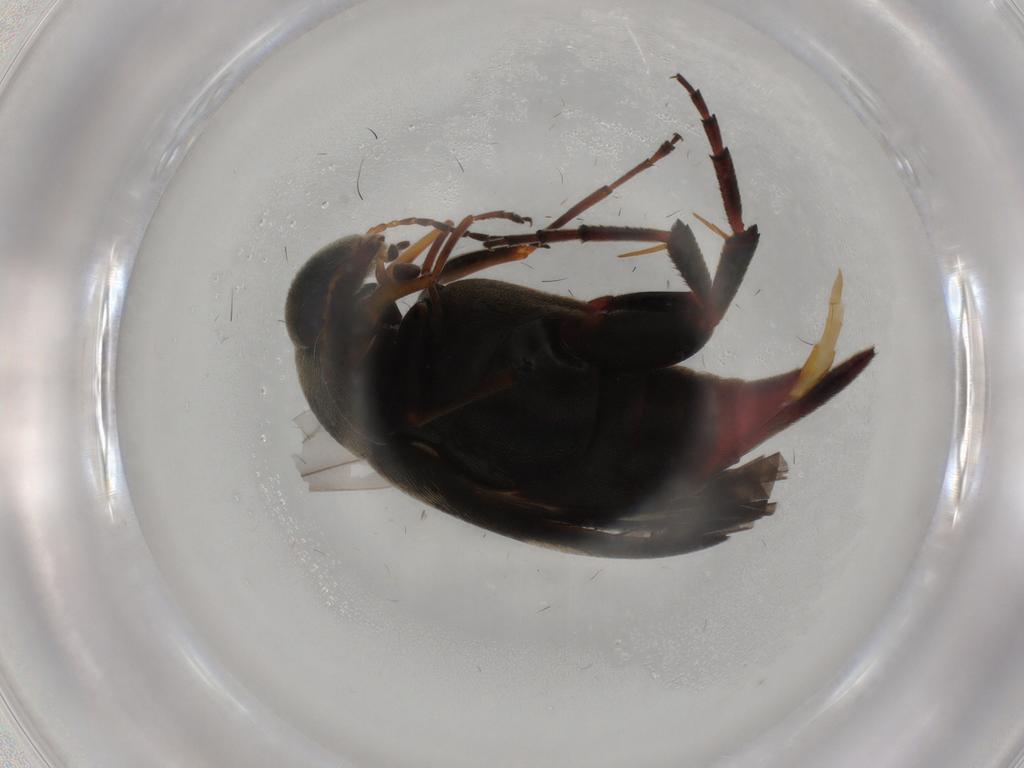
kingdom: Animalia
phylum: Arthropoda
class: Insecta
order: Coleoptera
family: Mordellidae
